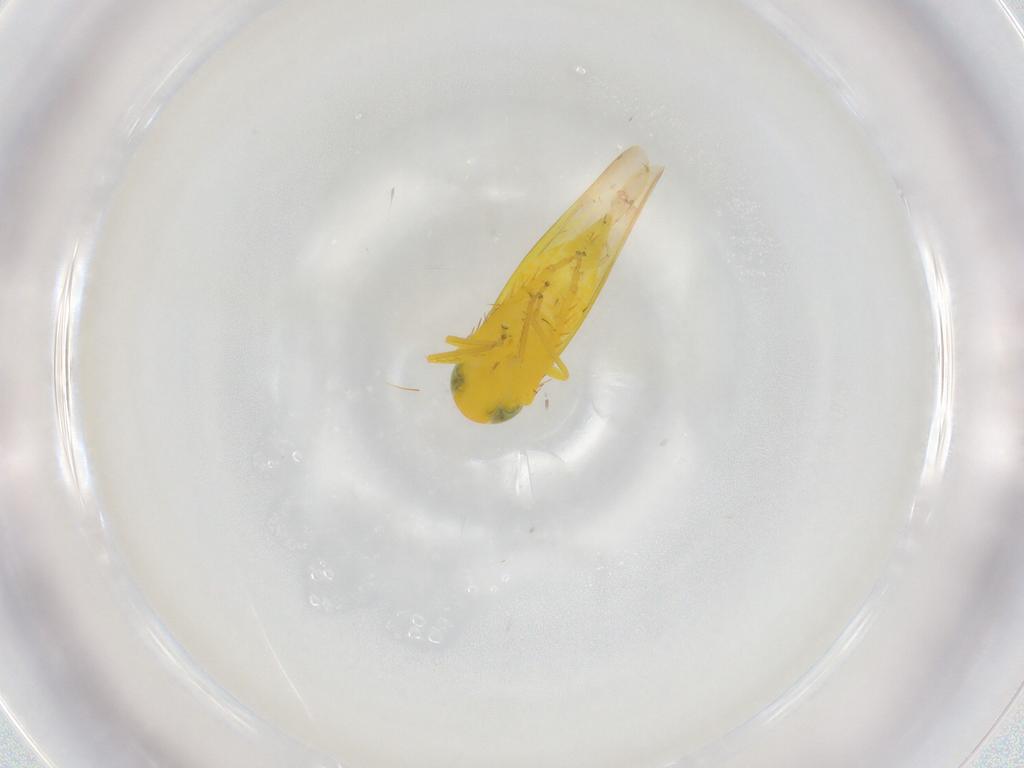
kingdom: Animalia
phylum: Arthropoda
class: Insecta
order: Hemiptera
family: Cicadellidae
